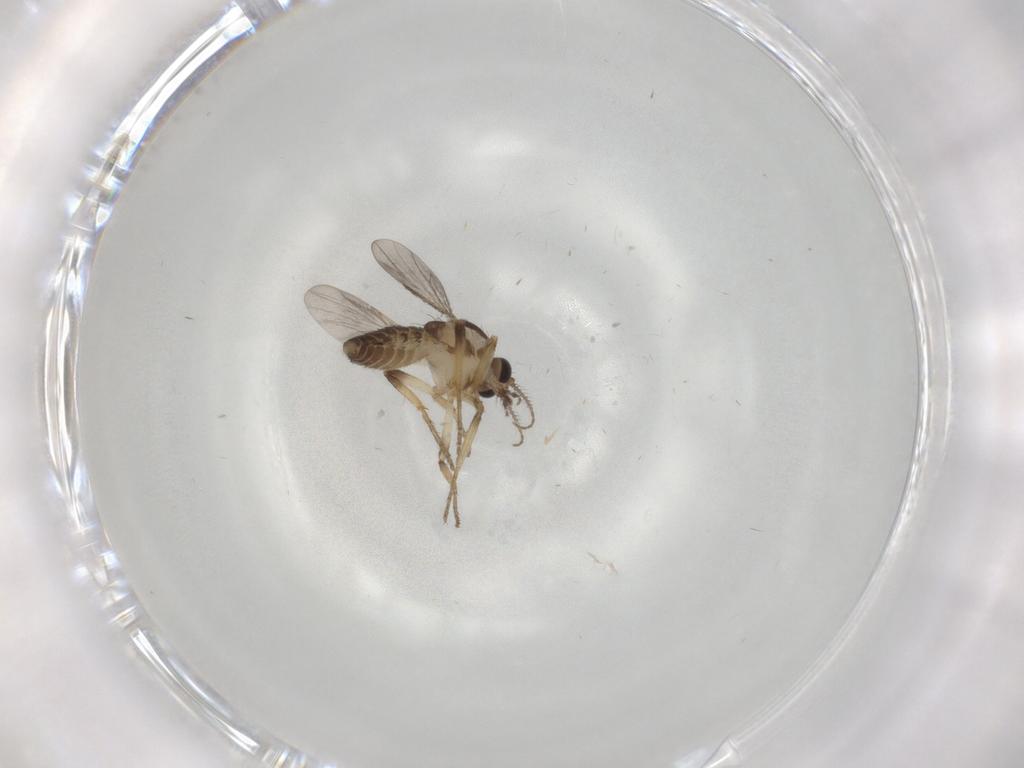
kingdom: Animalia
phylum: Arthropoda
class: Insecta
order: Diptera
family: Ceratopogonidae
